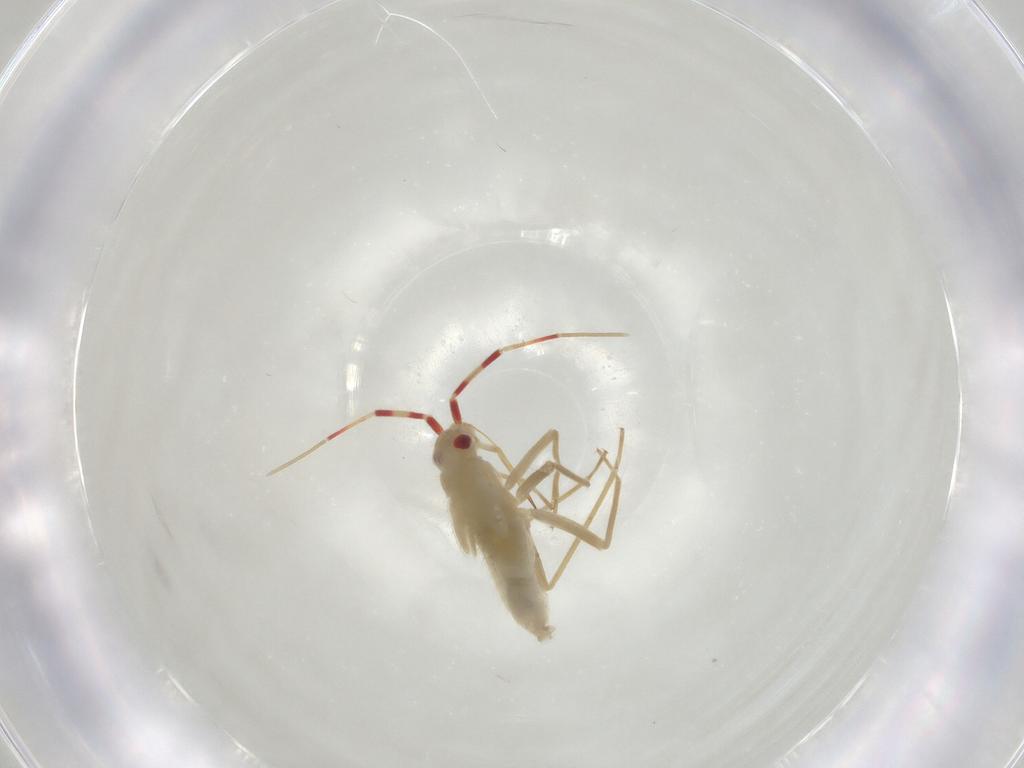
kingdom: Animalia
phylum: Arthropoda
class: Insecta
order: Hemiptera
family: Miridae
